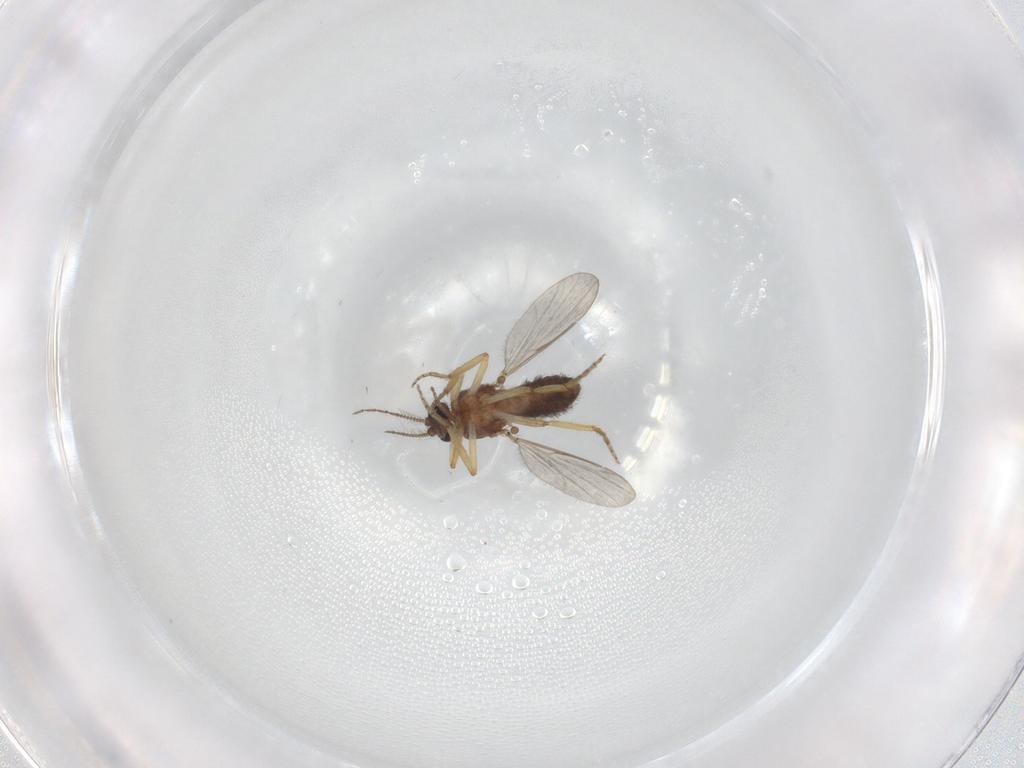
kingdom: Animalia
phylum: Arthropoda
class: Insecta
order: Diptera
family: Ceratopogonidae
